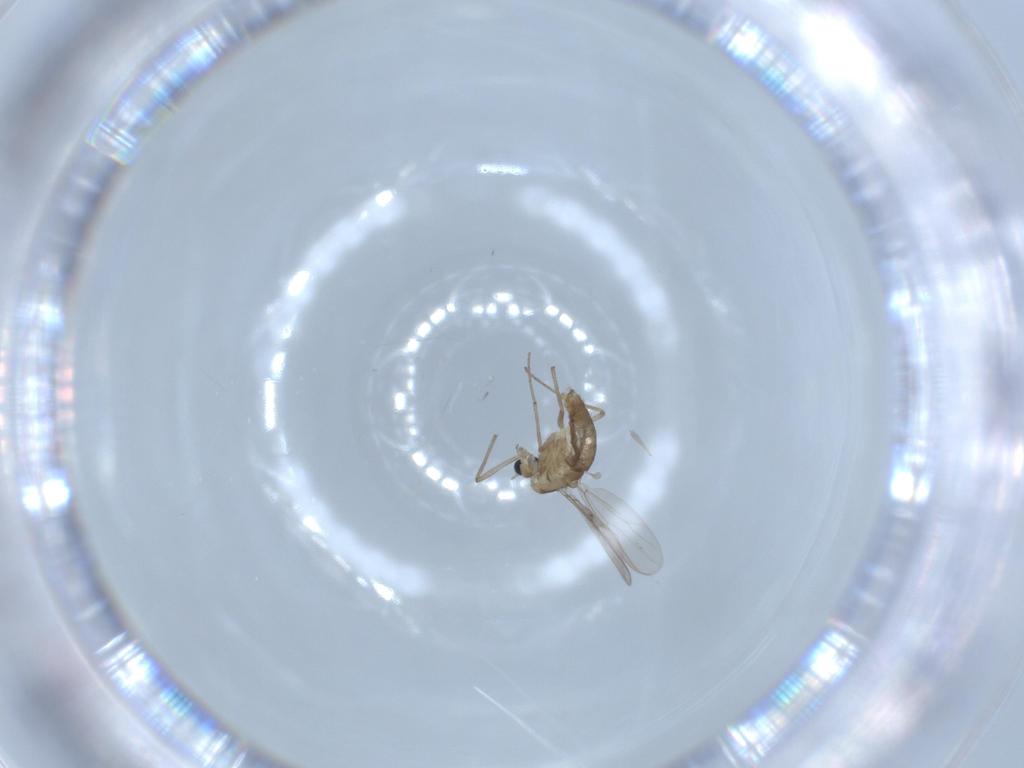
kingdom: Animalia
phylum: Arthropoda
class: Insecta
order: Diptera
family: Chironomidae
